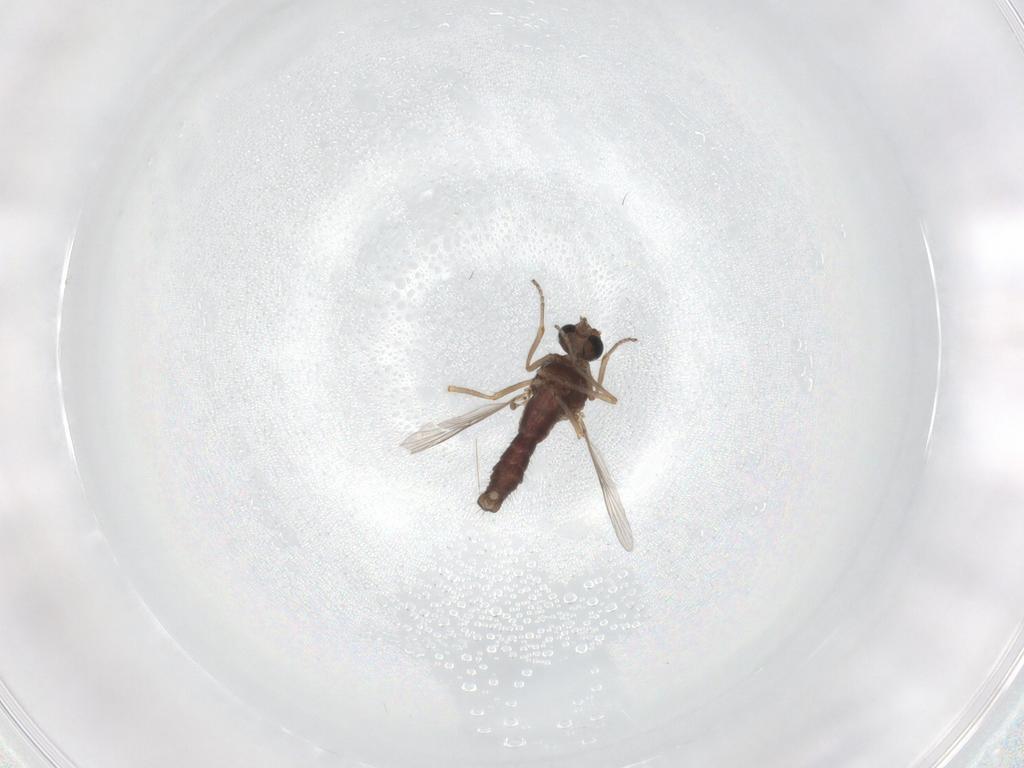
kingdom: Animalia
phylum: Arthropoda
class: Insecta
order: Diptera
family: Ceratopogonidae
